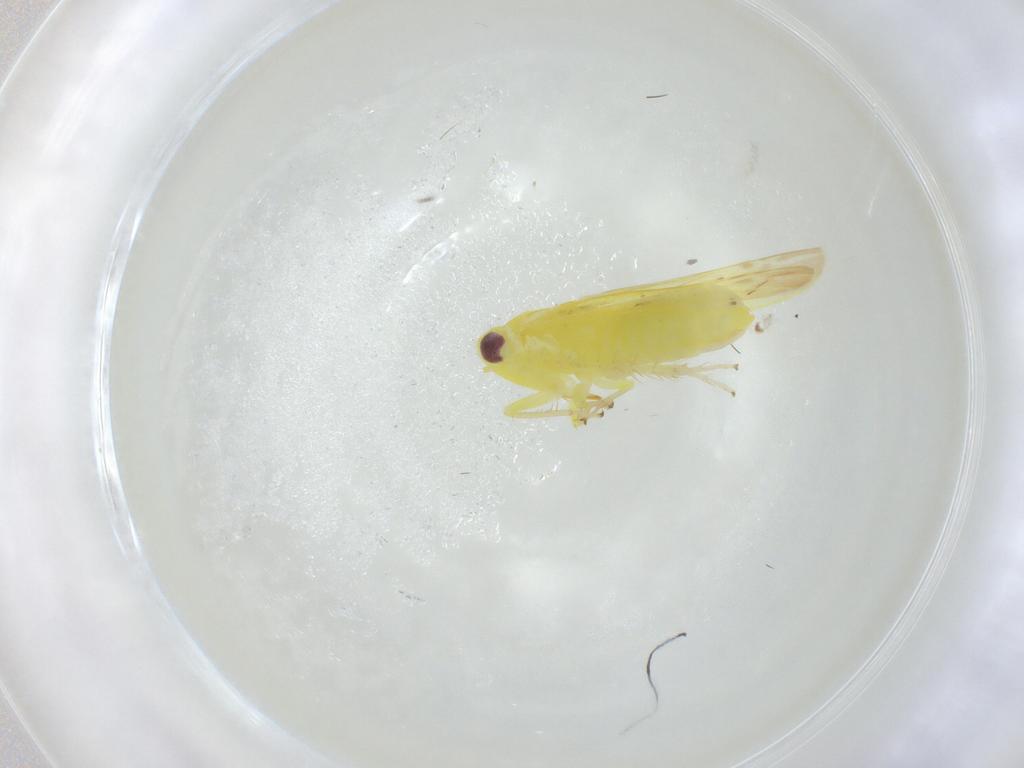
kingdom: Animalia
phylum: Arthropoda
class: Insecta
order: Hemiptera
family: Cicadellidae
